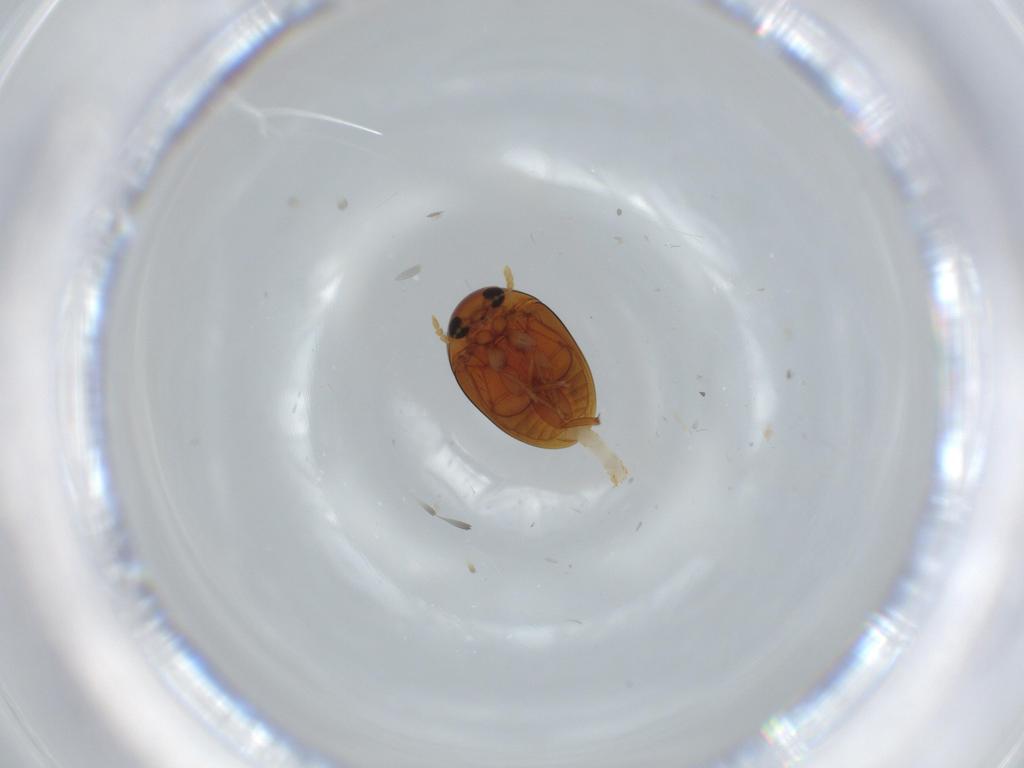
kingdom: Animalia
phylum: Arthropoda
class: Insecta
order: Coleoptera
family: Phalacridae
